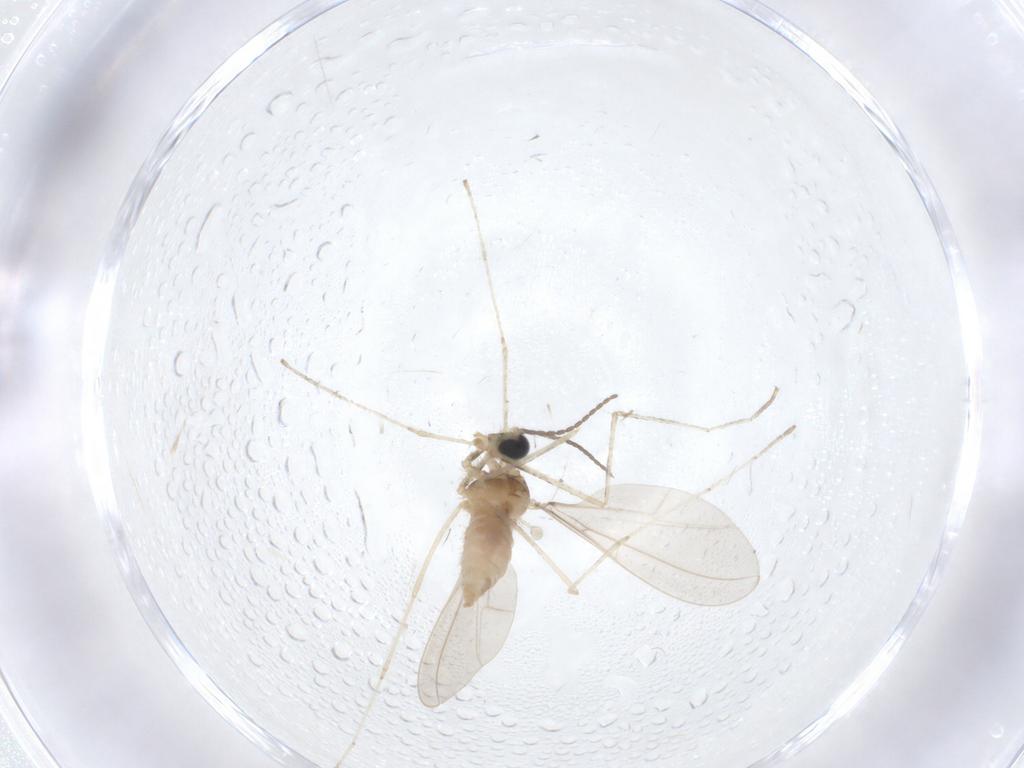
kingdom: Animalia
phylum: Arthropoda
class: Insecta
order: Diptera
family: Cecidomyiidae
